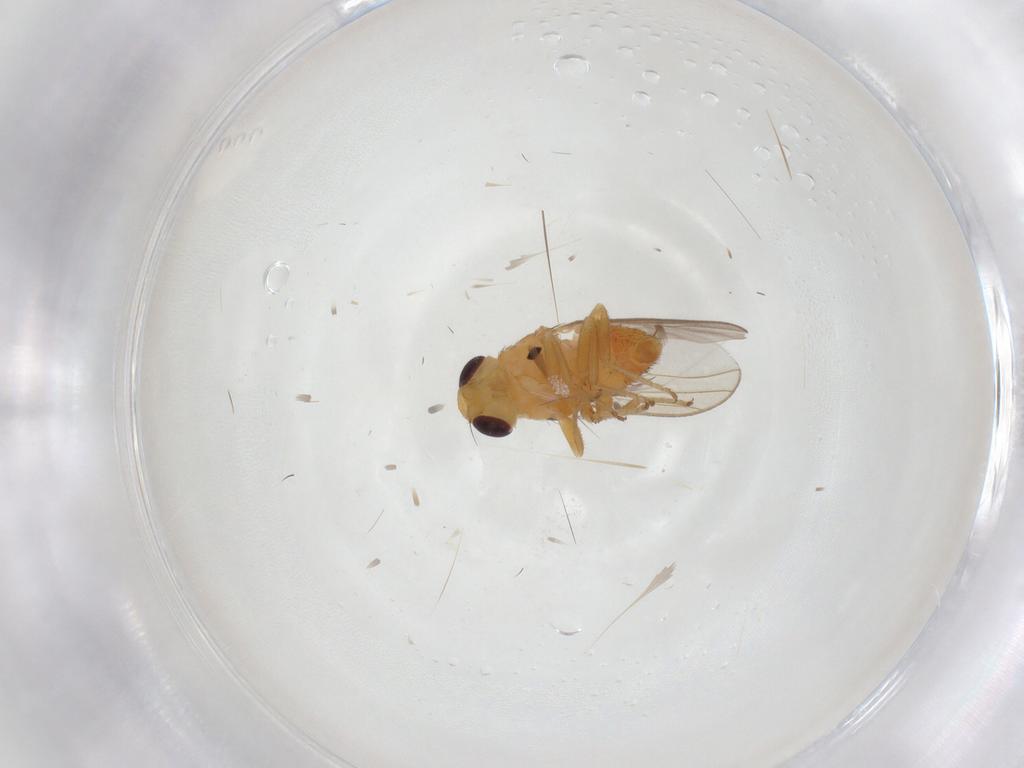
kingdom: Animalia
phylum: Arthropoda
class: Insecta
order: Diptera
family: Chloropidae
